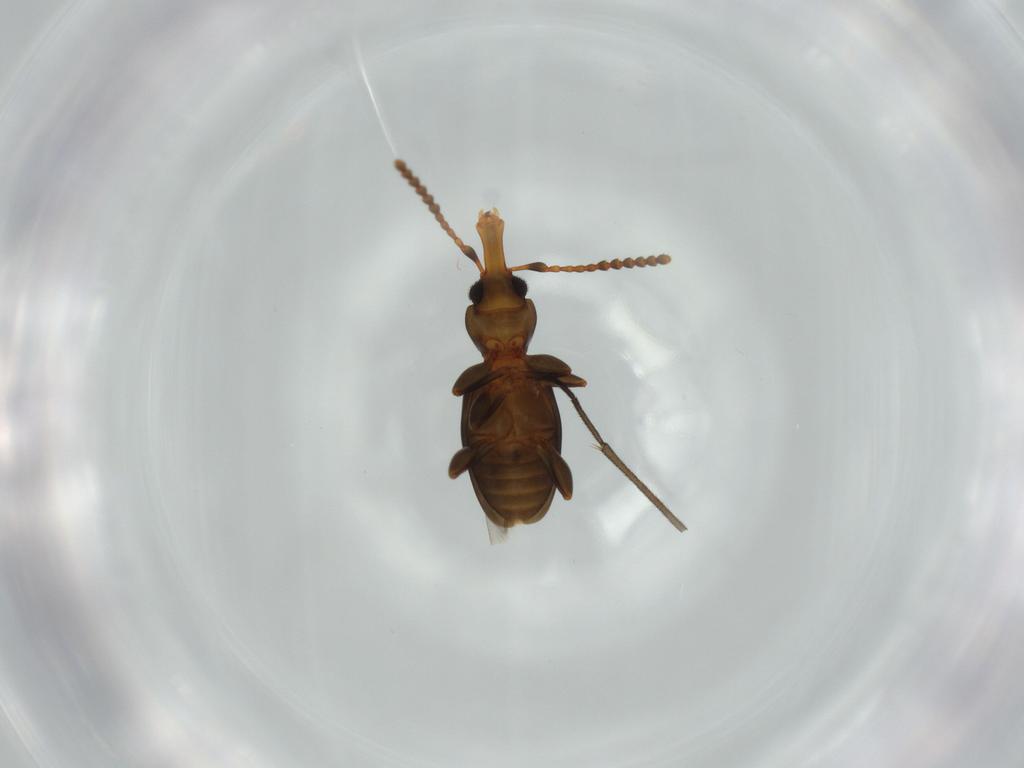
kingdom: Animalia
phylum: Arthropoda
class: Insecta
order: Coleoptera
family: Laemophloeidae
